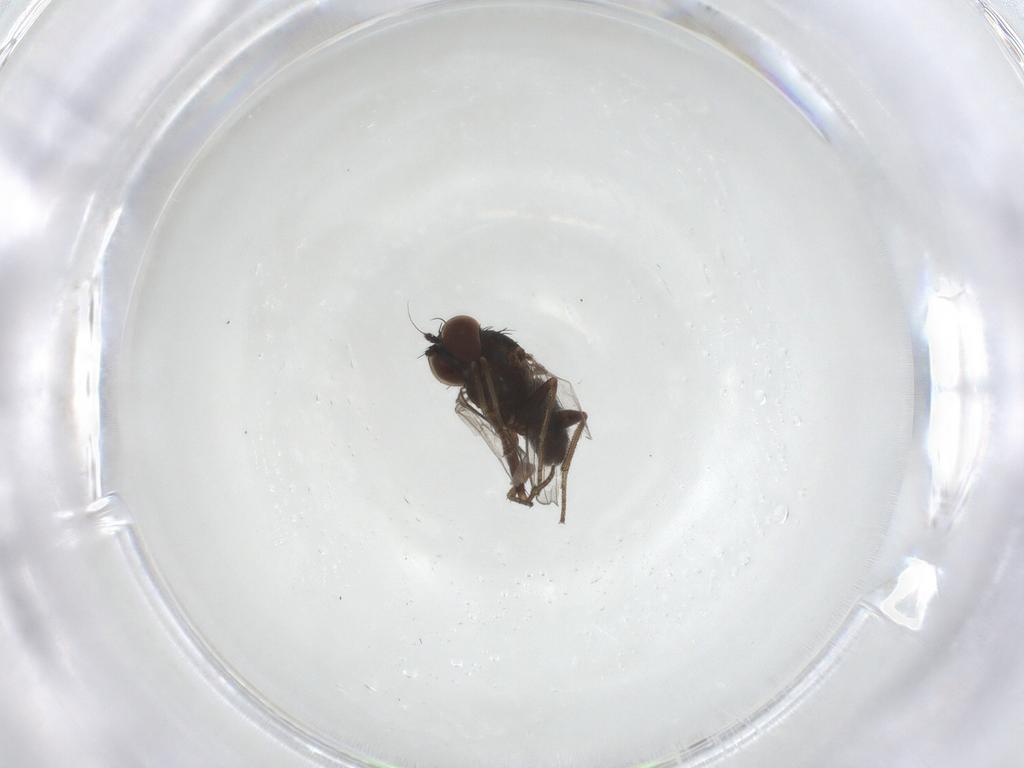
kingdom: Animalia
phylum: Arthropoda
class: Insecta
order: Diptera
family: Dolichopodidae
